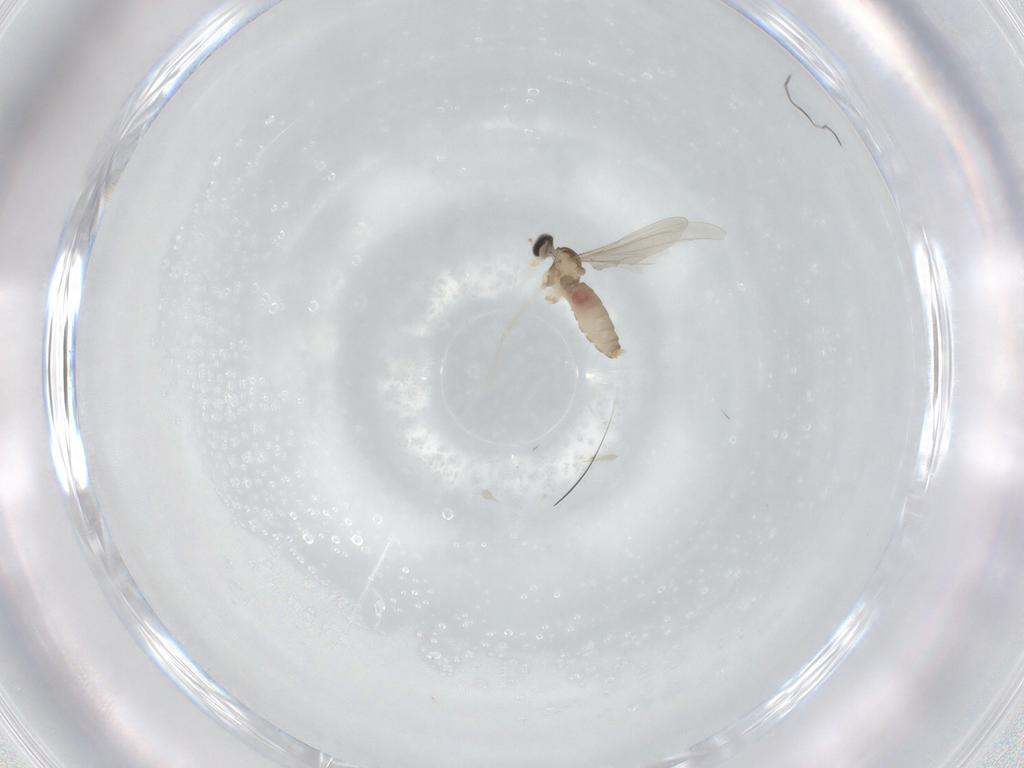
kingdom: Animalia
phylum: Arthropoda
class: Insecta
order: Diptera
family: Cecidomyiidae
